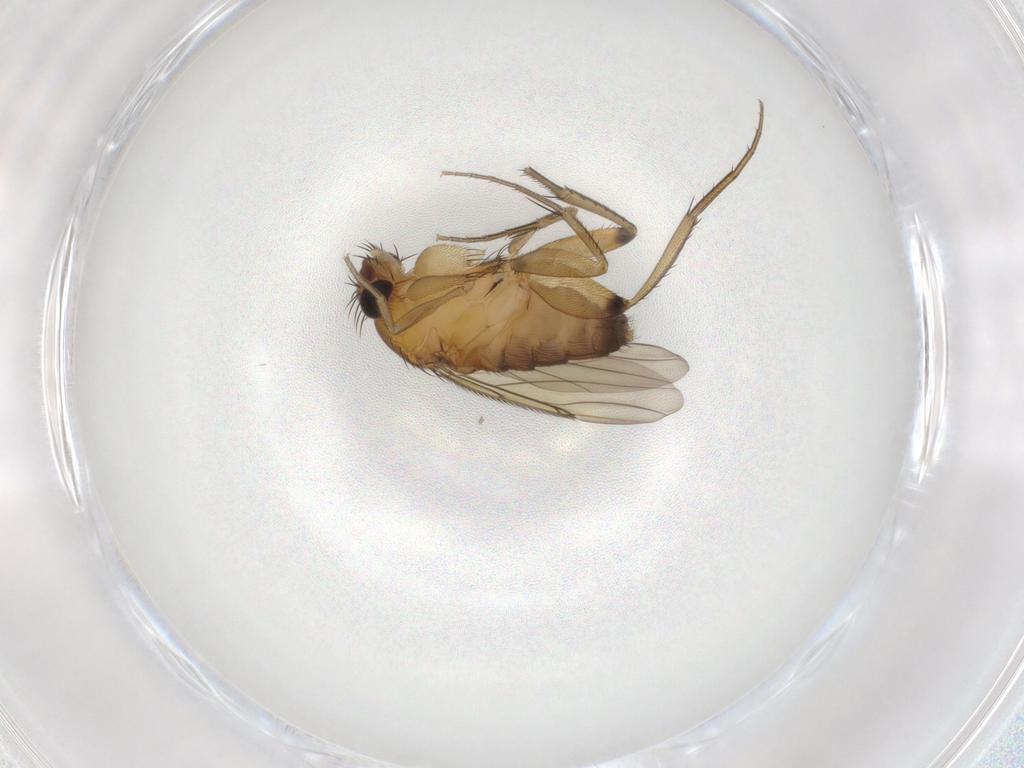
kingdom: Animalia
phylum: Arthropoda
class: Insecta
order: Diptera
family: Phoridae
